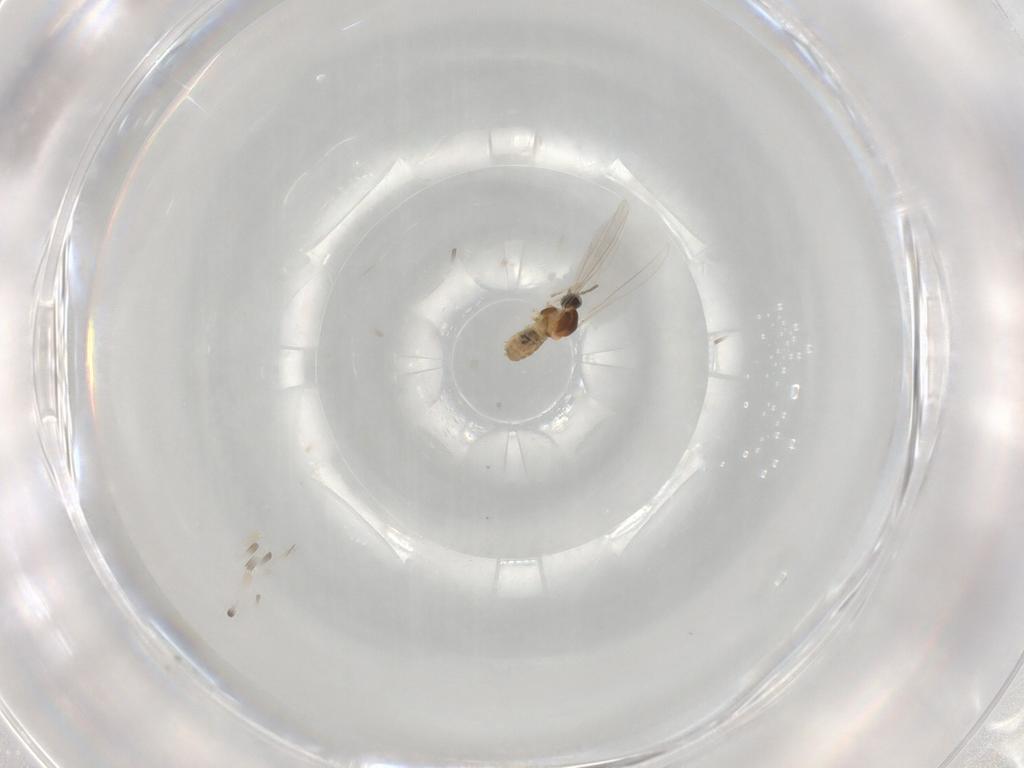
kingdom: Animalia
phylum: Arthropoda
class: Insecta
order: Diptera
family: Cecidomyiidae
